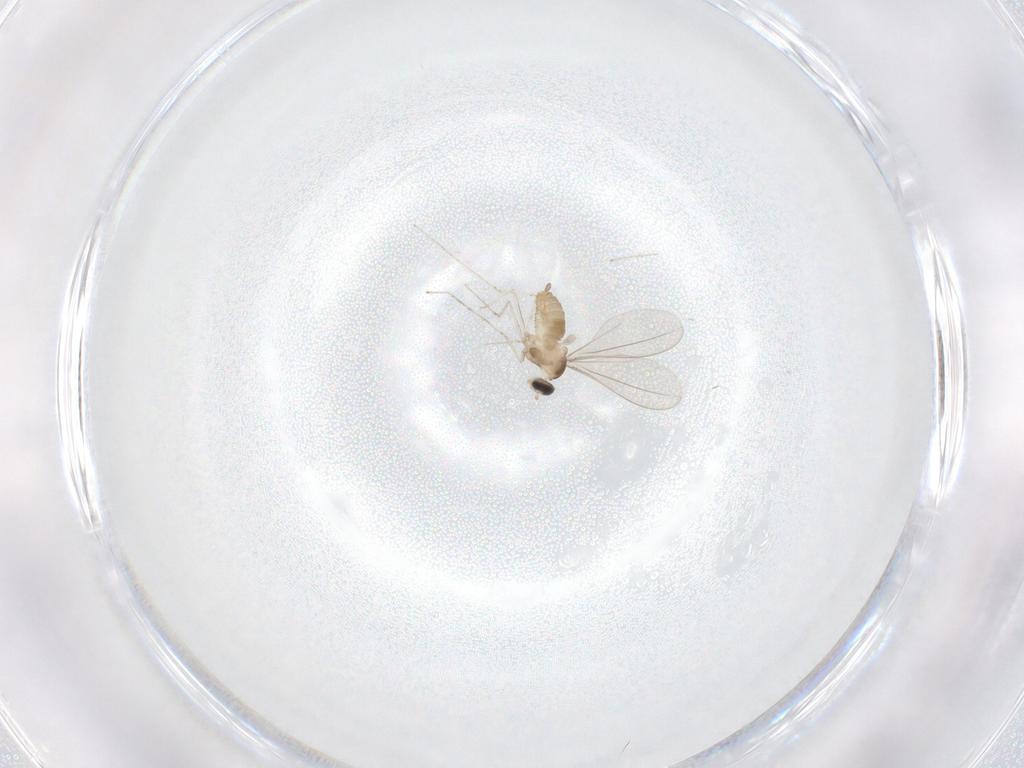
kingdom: Animalia
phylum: Arthropoda
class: Insecta
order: Diptera
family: Cecidomyiidae
